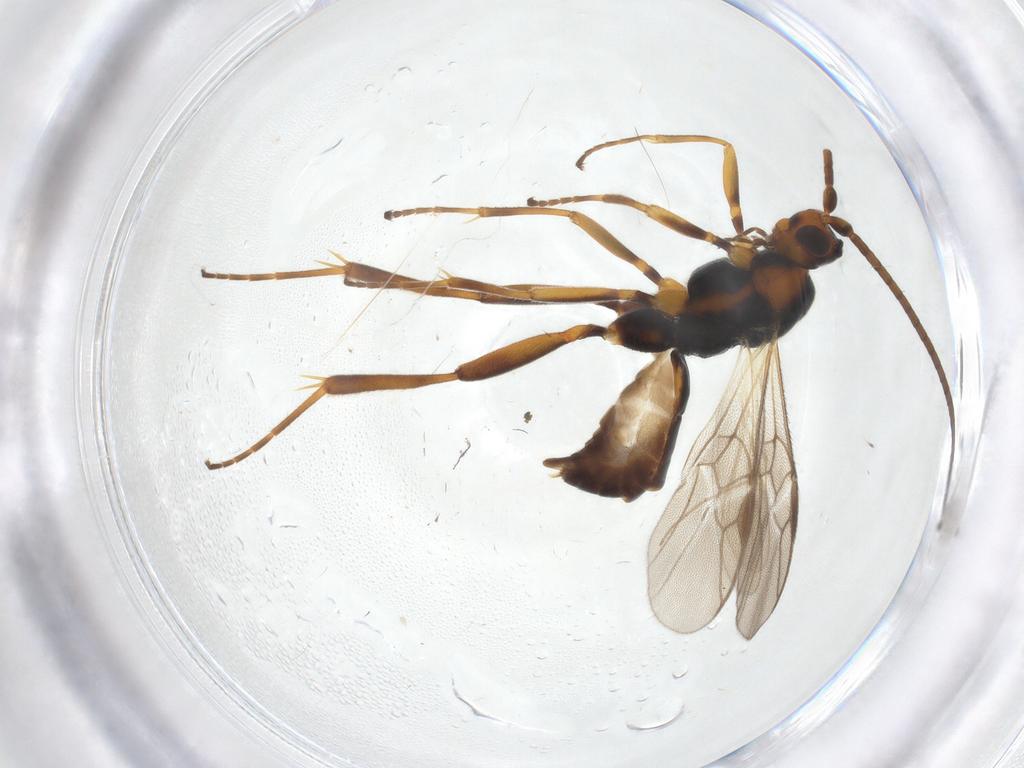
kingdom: Animalia
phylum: Arthropoda
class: Insecta
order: Hymenoptera
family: Braconidae
